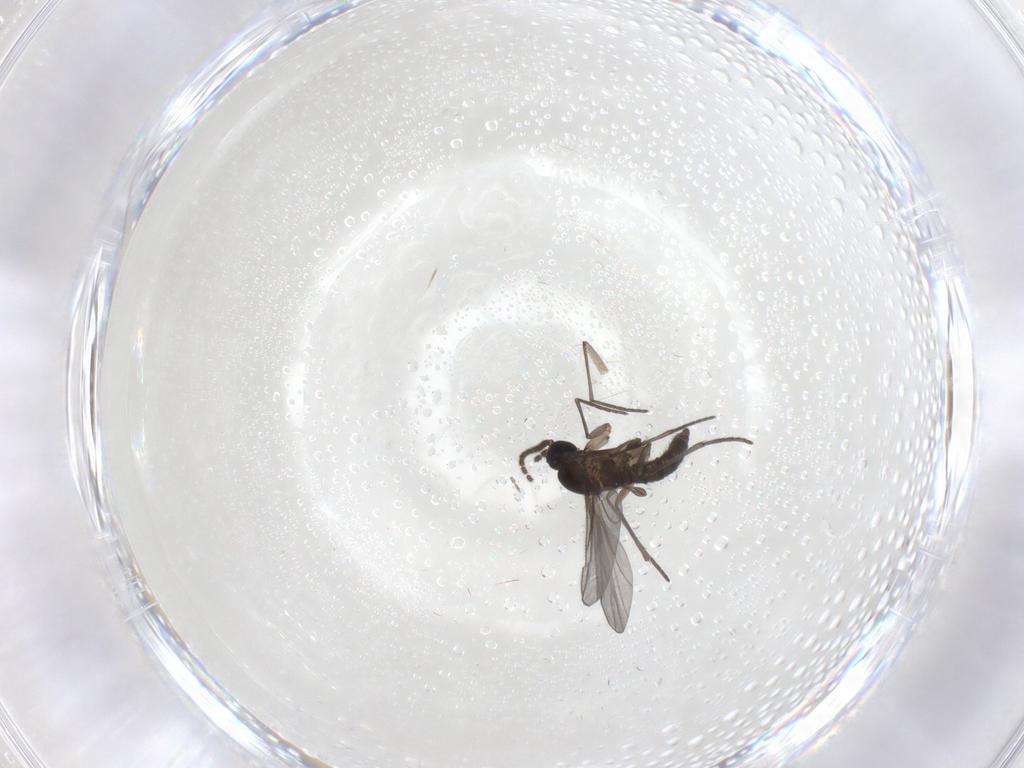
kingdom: Animalia
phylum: Arthropoda
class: Insecta
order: Diptera
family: Sciaridae
